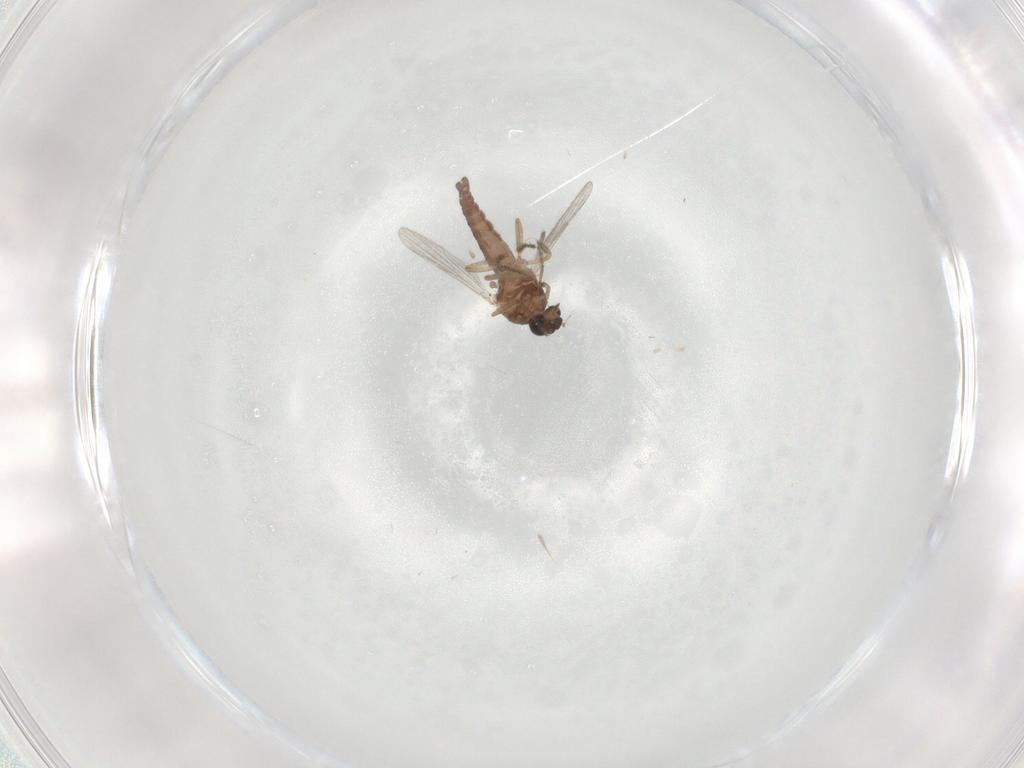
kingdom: Animalia
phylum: Arthropoda
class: Insecta
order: Diptera
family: Ceratopogonidae
